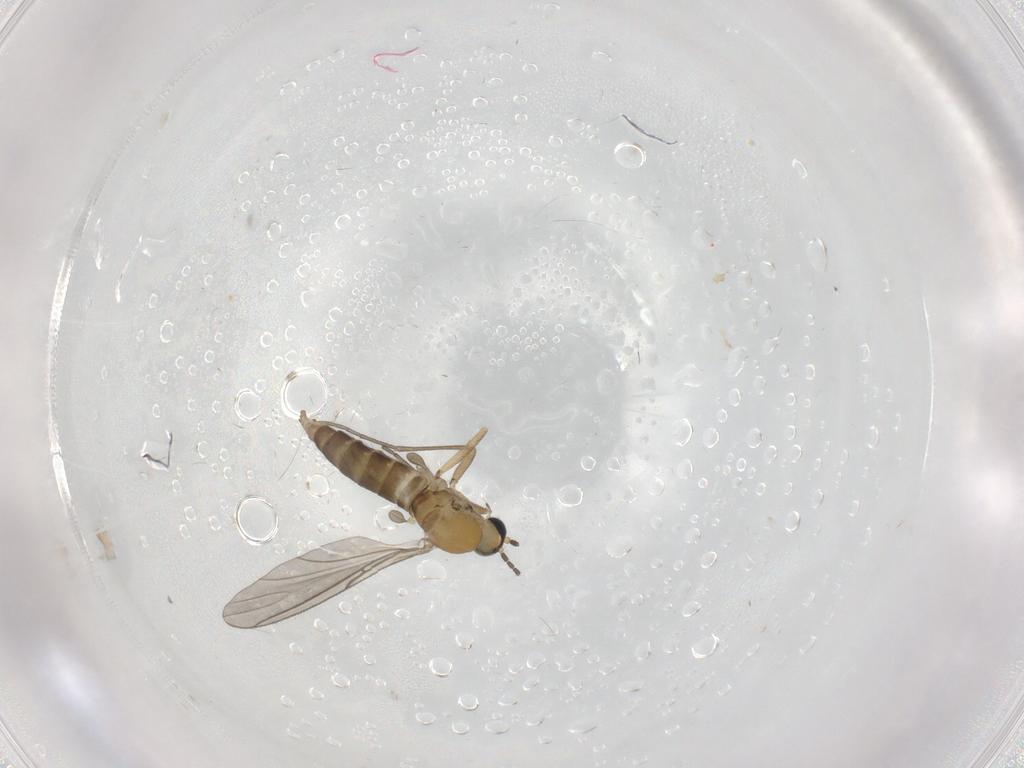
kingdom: Animalia
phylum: Arthropoda
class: Insecta
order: Diptera
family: Sciaridae
